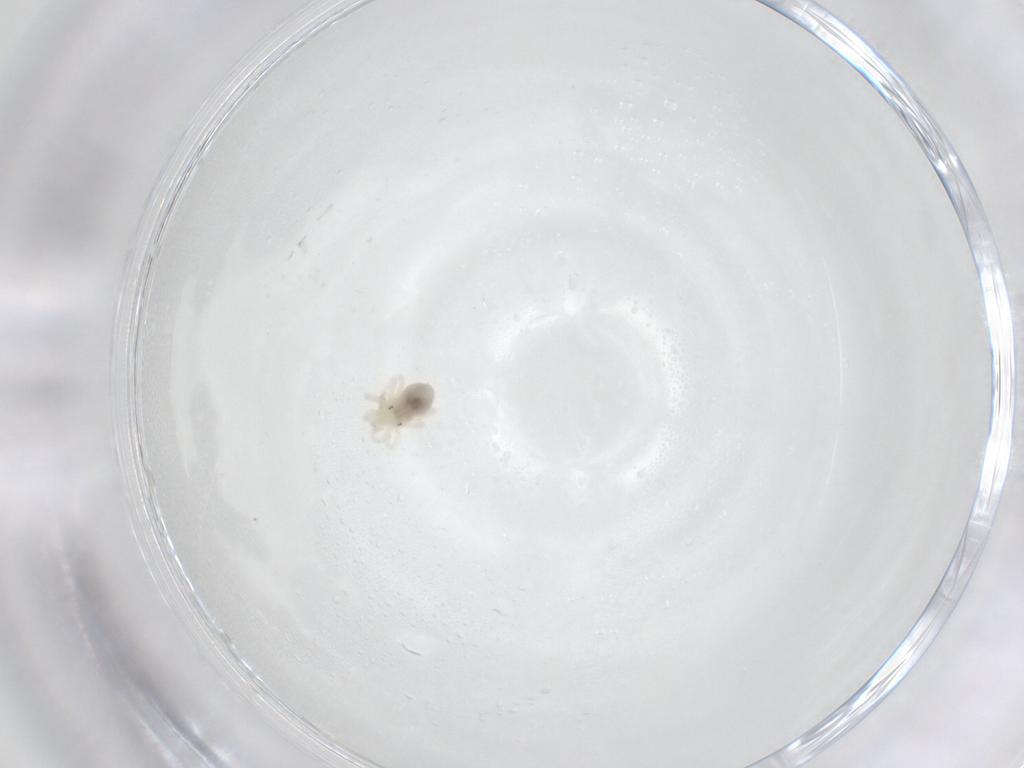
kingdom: Animalia
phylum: Arthropoda
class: Arachnida
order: Trombidiformes
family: Anystidae
